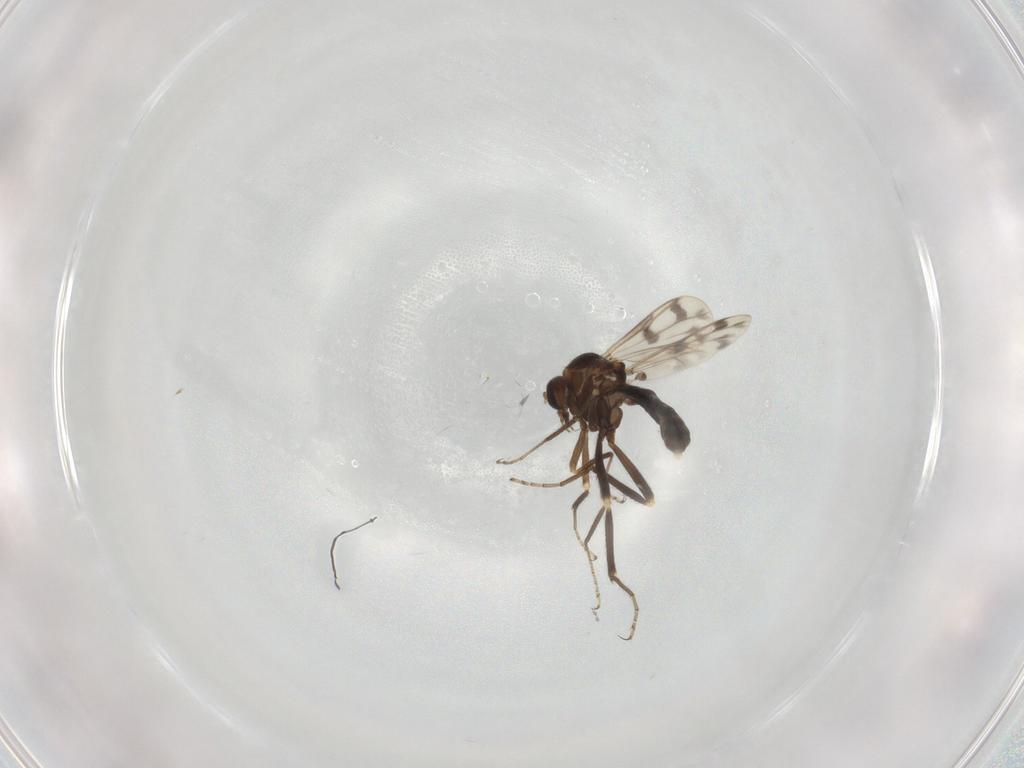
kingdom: Animalia
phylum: Arthropoda
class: Insecta
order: Diptera
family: Ceratopogonidae
